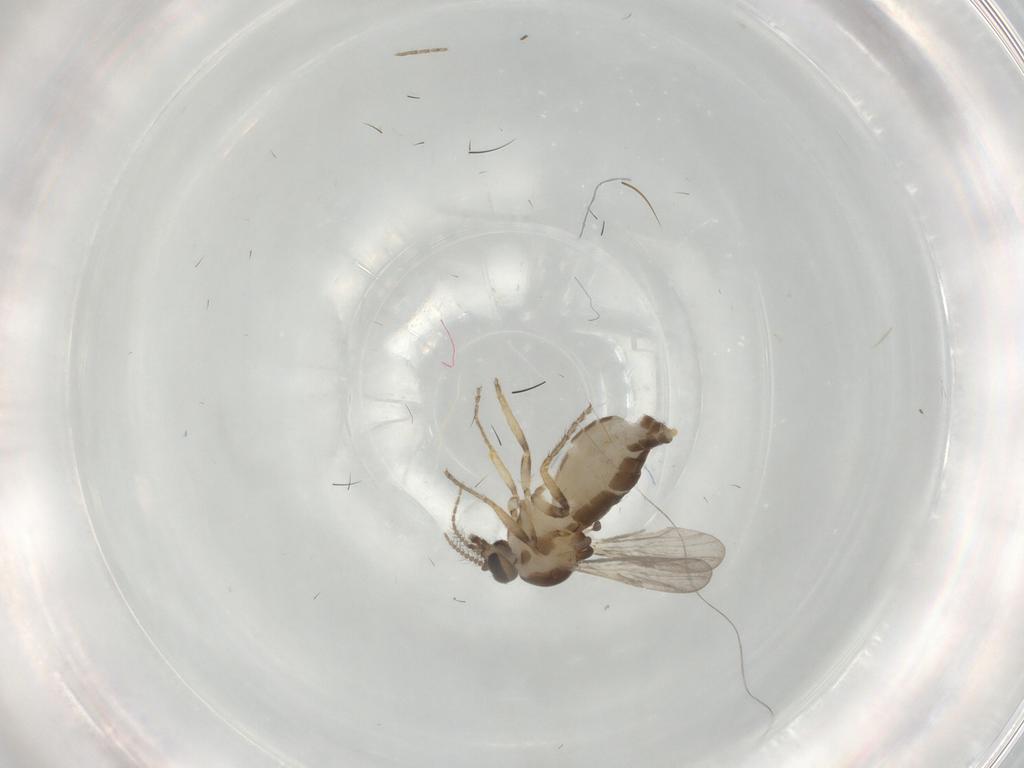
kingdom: Animalia
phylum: Arthropoda
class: Insecta
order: Diptera
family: Ceratopogonidae
